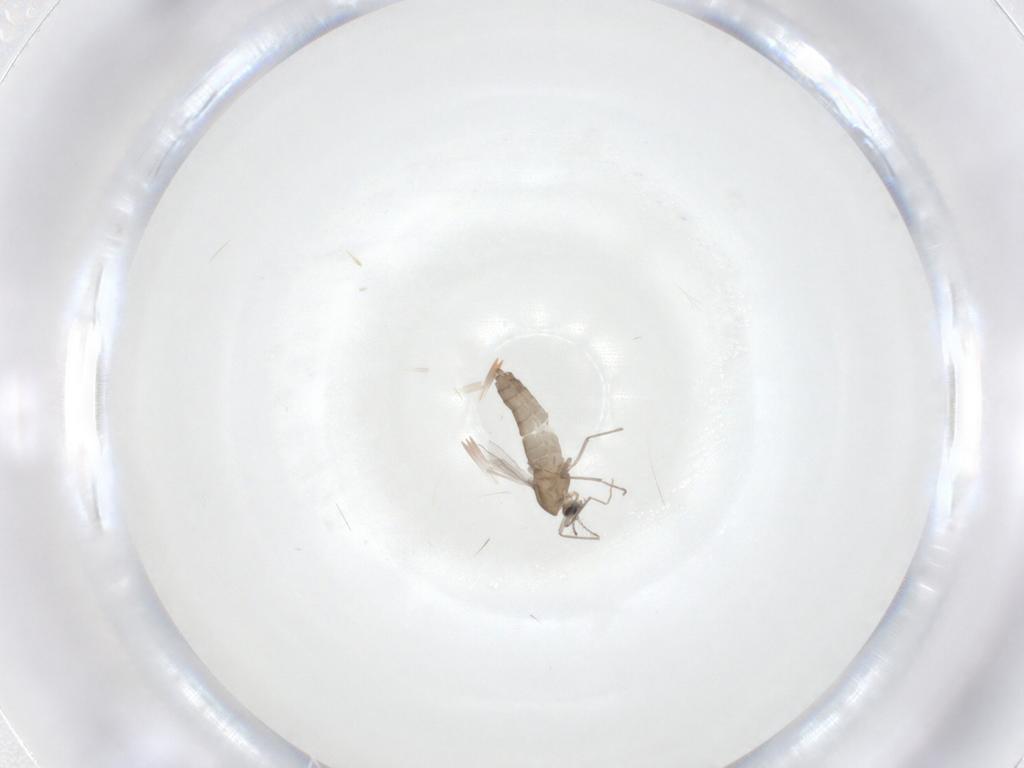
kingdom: Animalia
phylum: Arthropoda
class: Insecta
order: Diptera
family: Chironomidae
